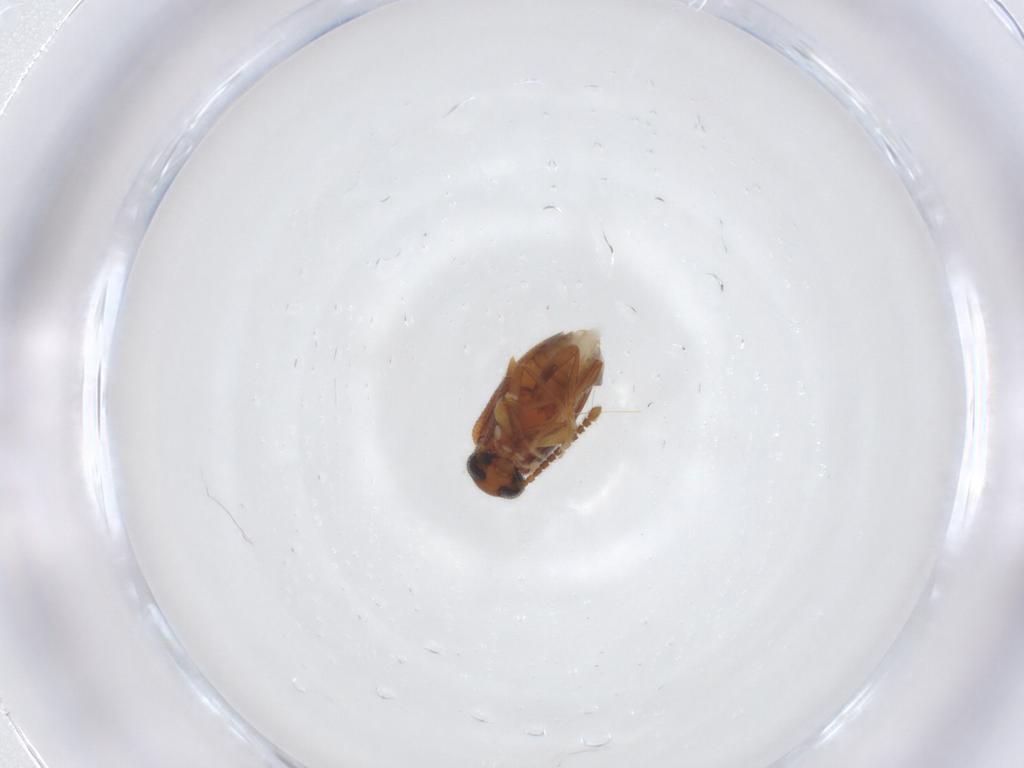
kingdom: Animalia
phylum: Arthropoda
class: Insecta
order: Coleoptera
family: Aderidae
